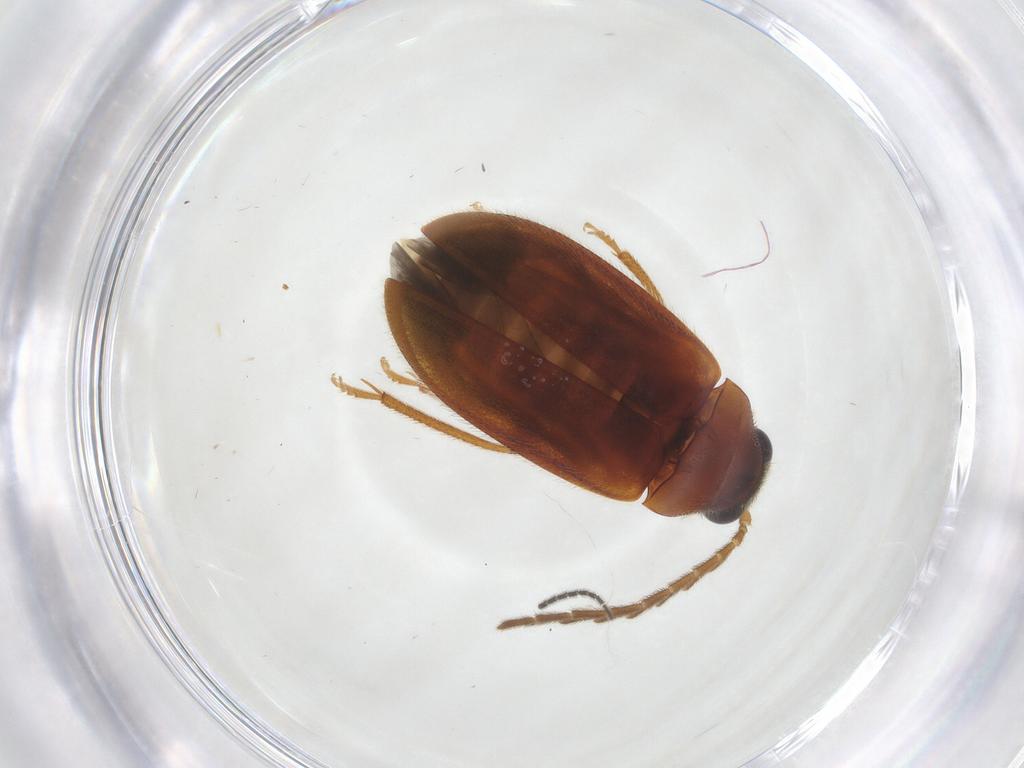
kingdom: Animalia
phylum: Arthropoda
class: Insecta
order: Coleoptera
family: Ptilodactylidae
